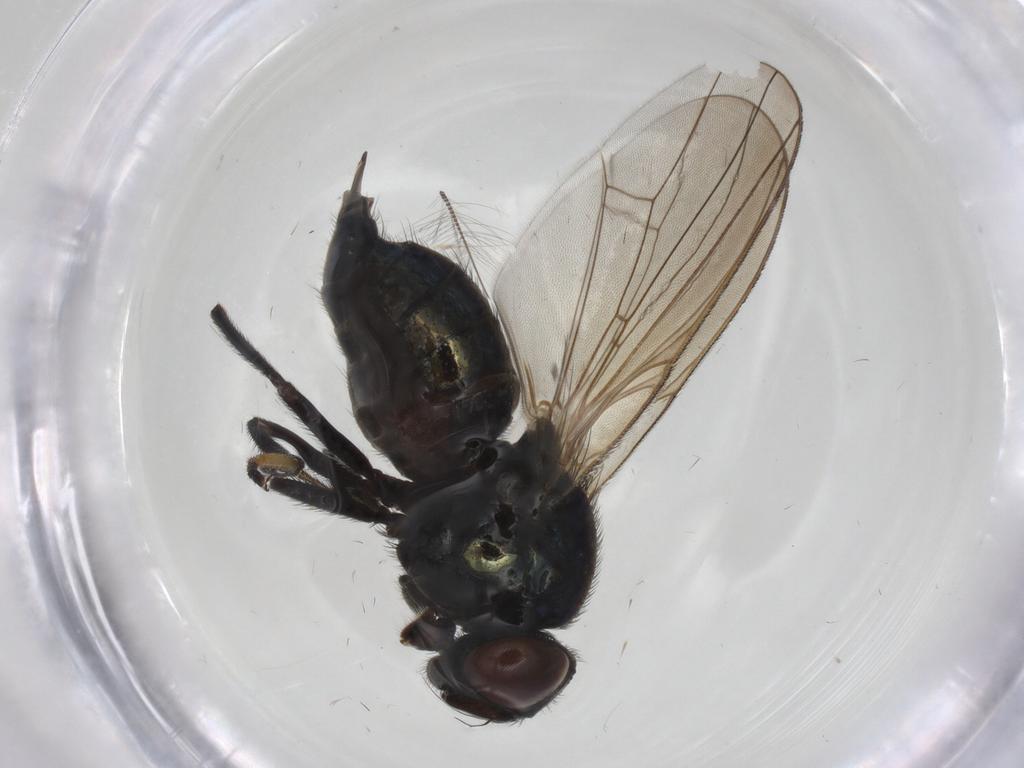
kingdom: Animalia
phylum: Arthropoda
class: Insecta
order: Diptera
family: Lonchaeidae
